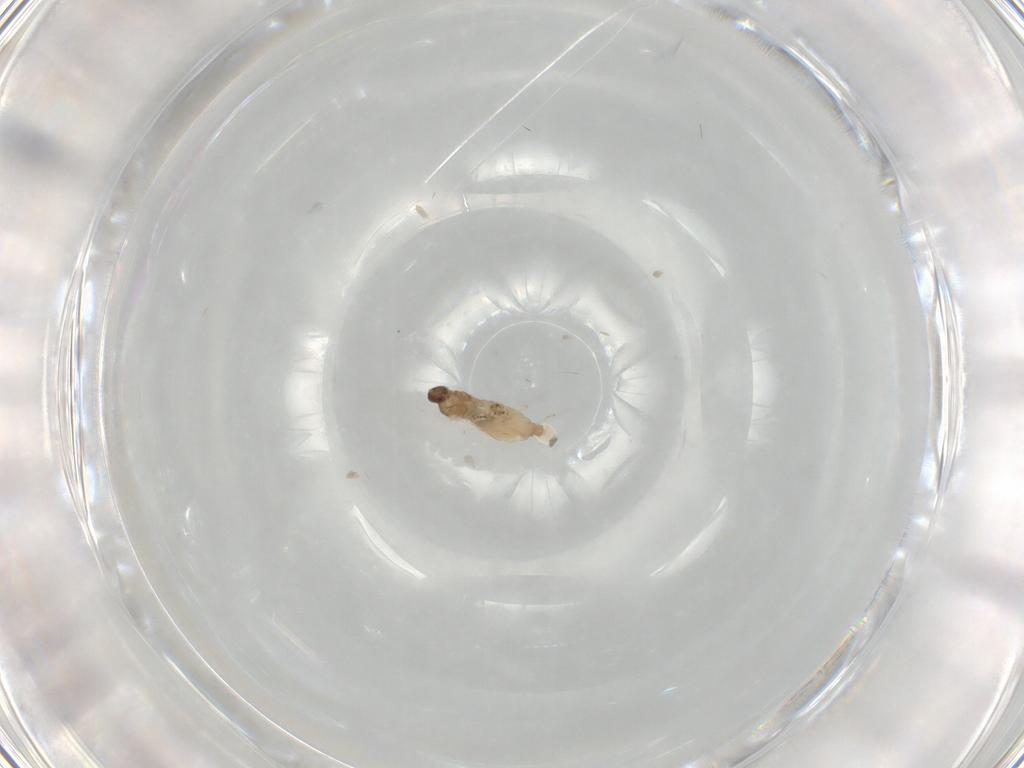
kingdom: Animalia
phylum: Arthropoda
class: Insecta
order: Diptera
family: Cecidomyiidae
